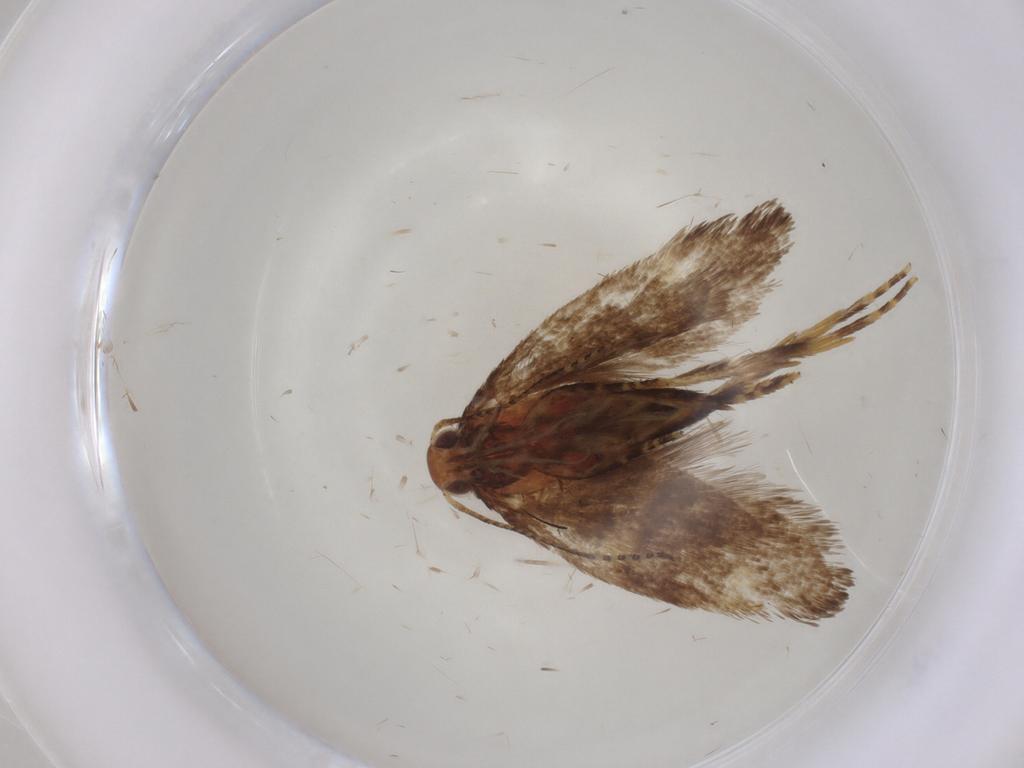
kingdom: Animalia
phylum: Arthropoda
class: Insecta
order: Lepidoptera
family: Oecophoridae
